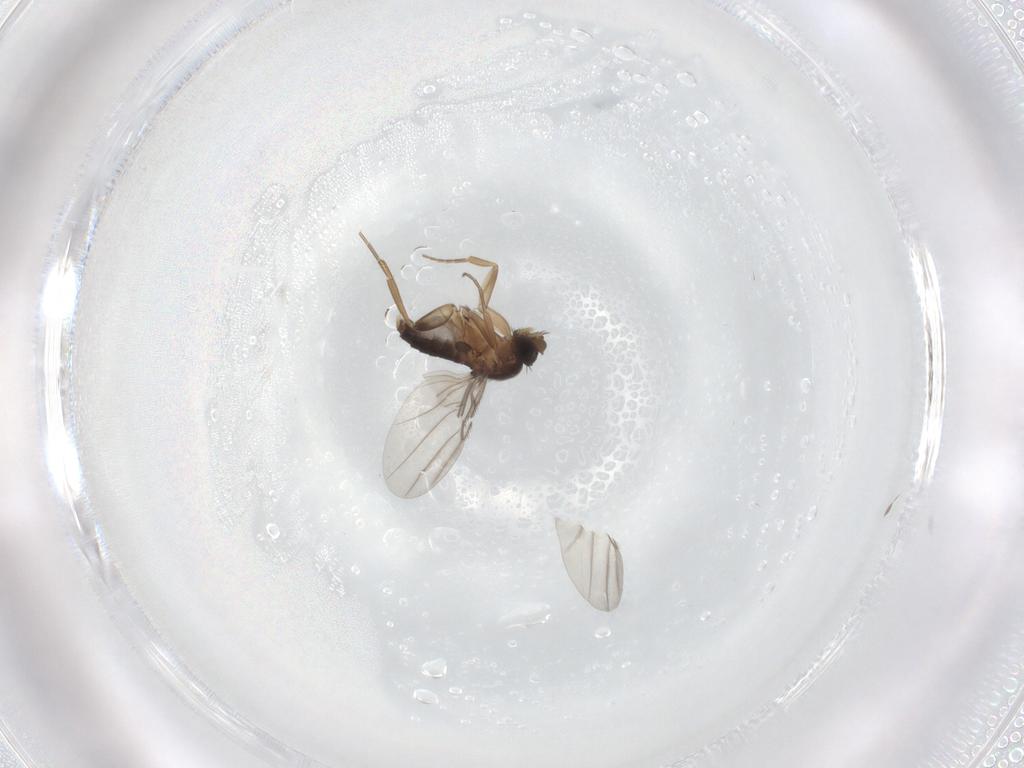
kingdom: Animalia
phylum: Arthropoda
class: Insecta
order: Diptera
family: Phoridae
